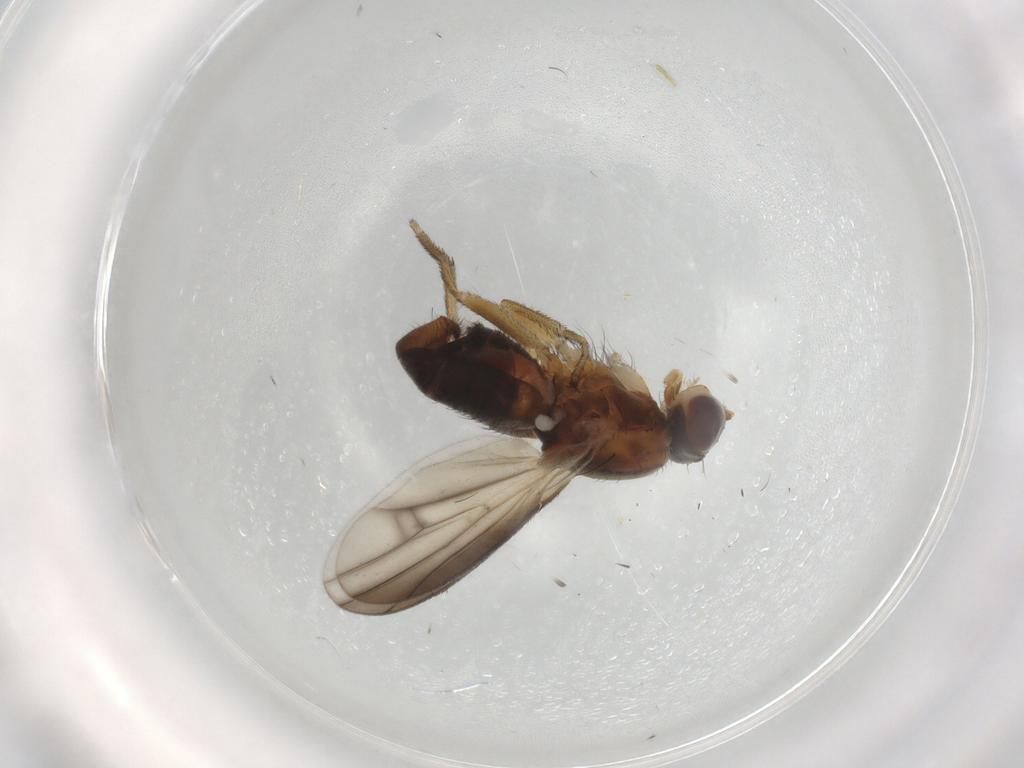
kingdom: Animalia
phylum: Arthropoda
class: Insecta
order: Diptera
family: Heleomyzidae
